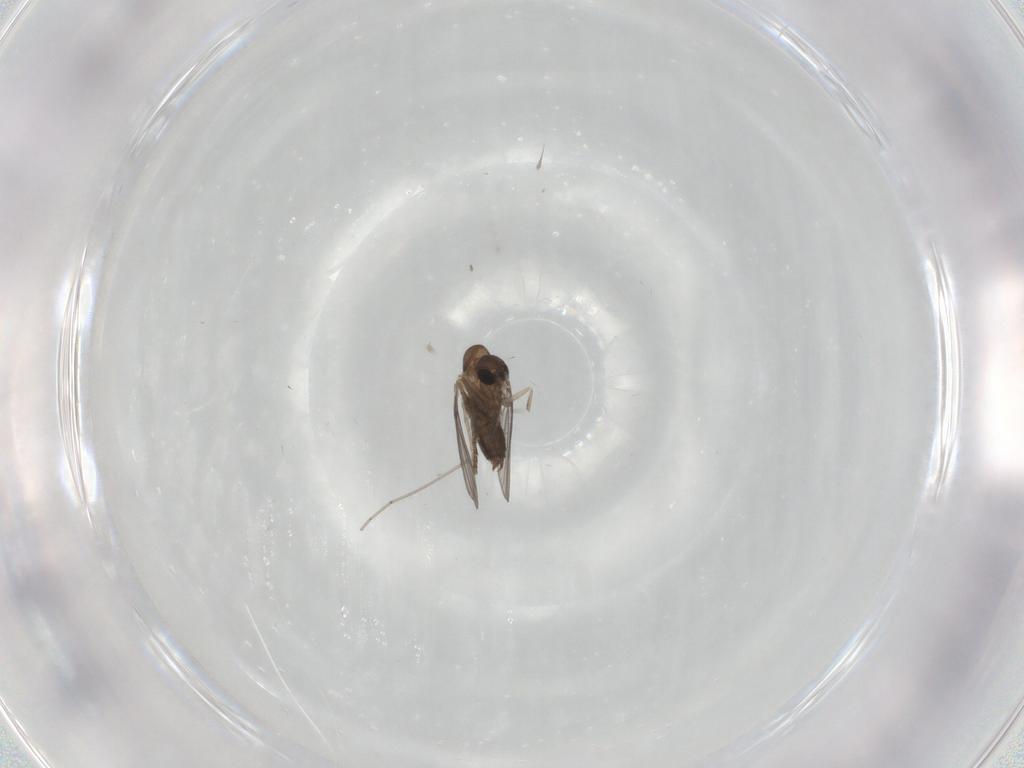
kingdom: Animalia
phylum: Arthropoda
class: Insecta
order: Diptera
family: Cecidomyiidae
